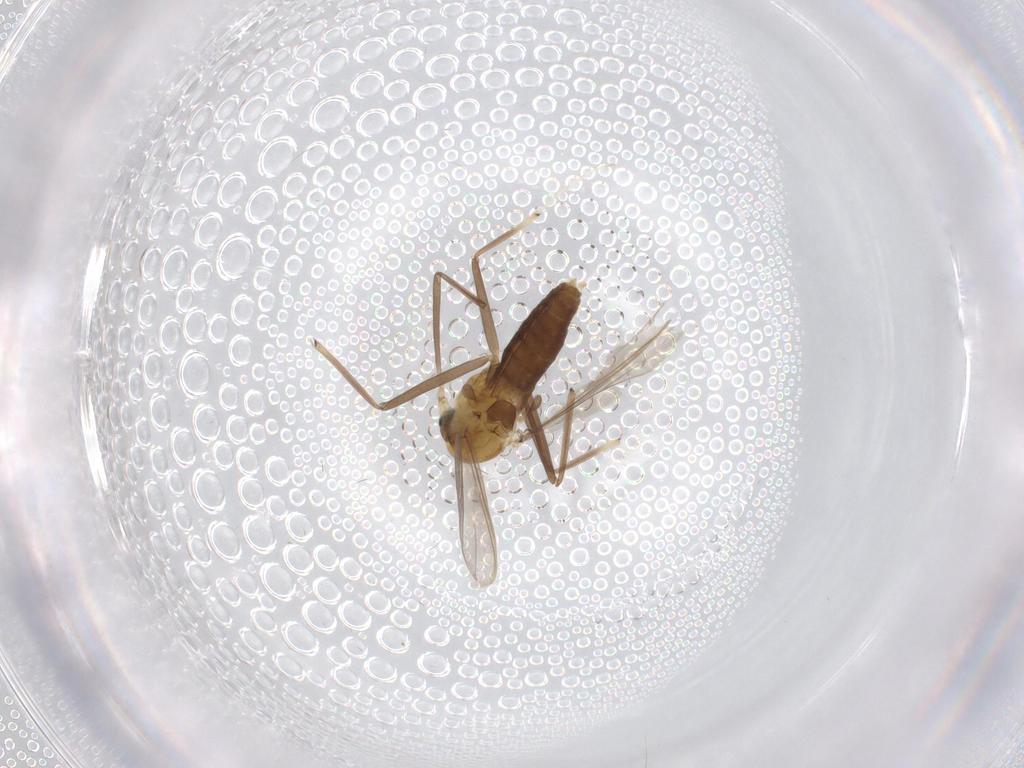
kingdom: Animalia
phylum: Arthropoda
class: Insecta
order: Diptera
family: Chironomidae
